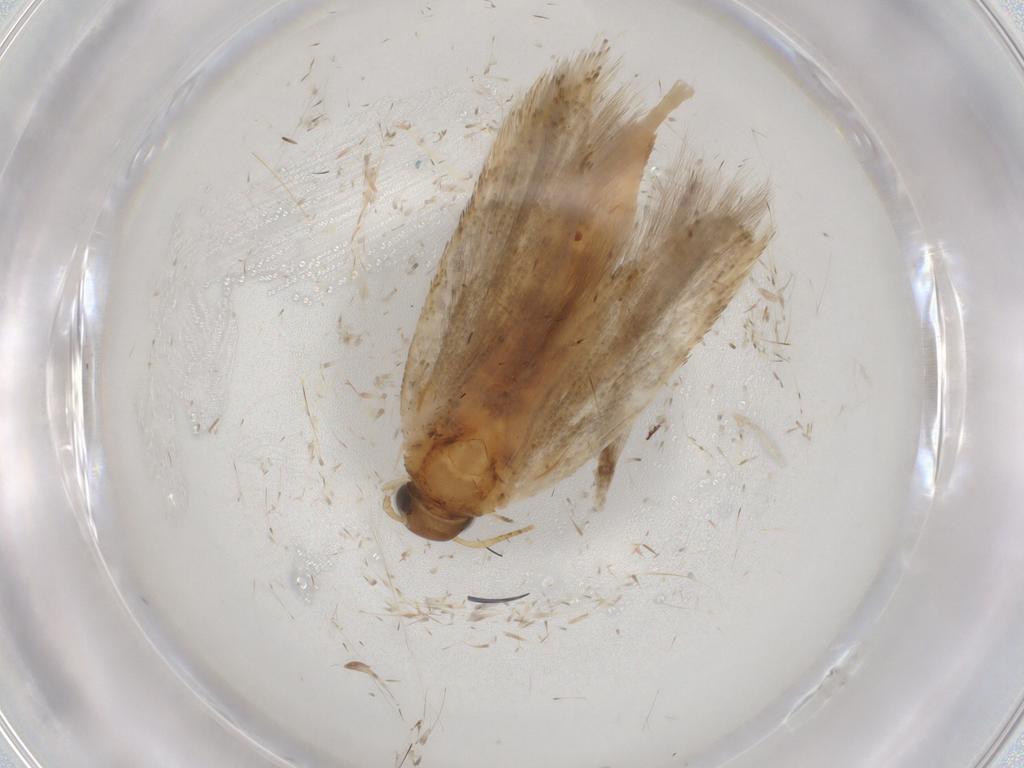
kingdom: Animalia
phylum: Arthropoda
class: Insecta
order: Lepidoptera
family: Gelechiidae
